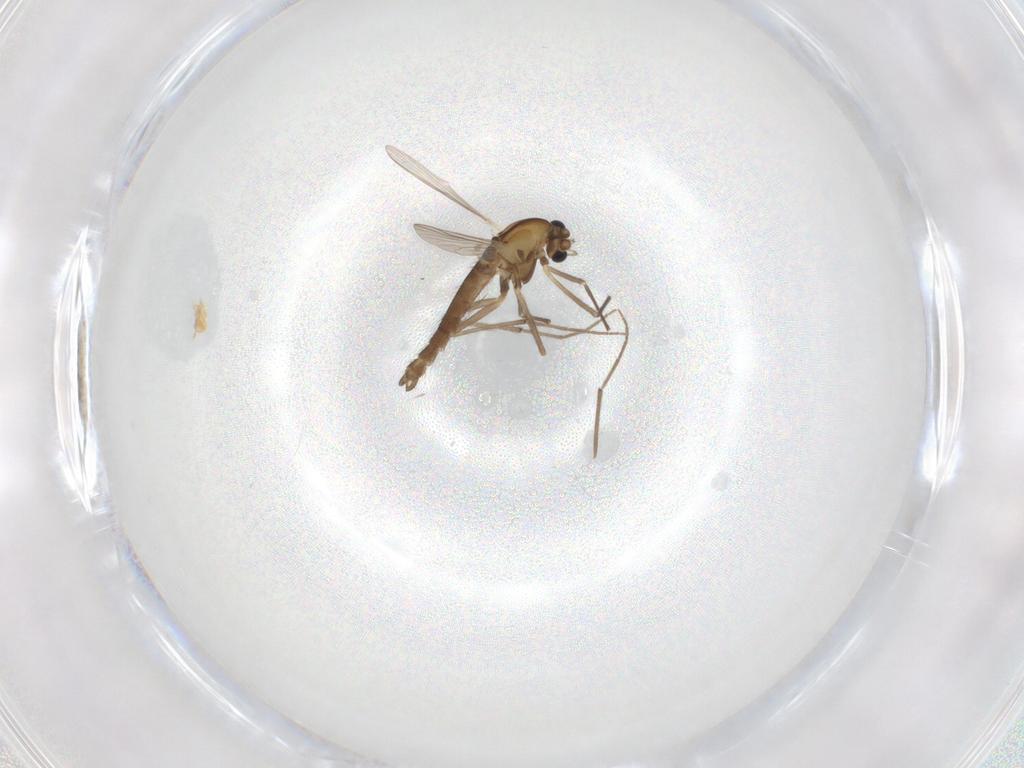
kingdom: Animalia
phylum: Arthropoda
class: Insecta
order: Diptera
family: Chironomidae
